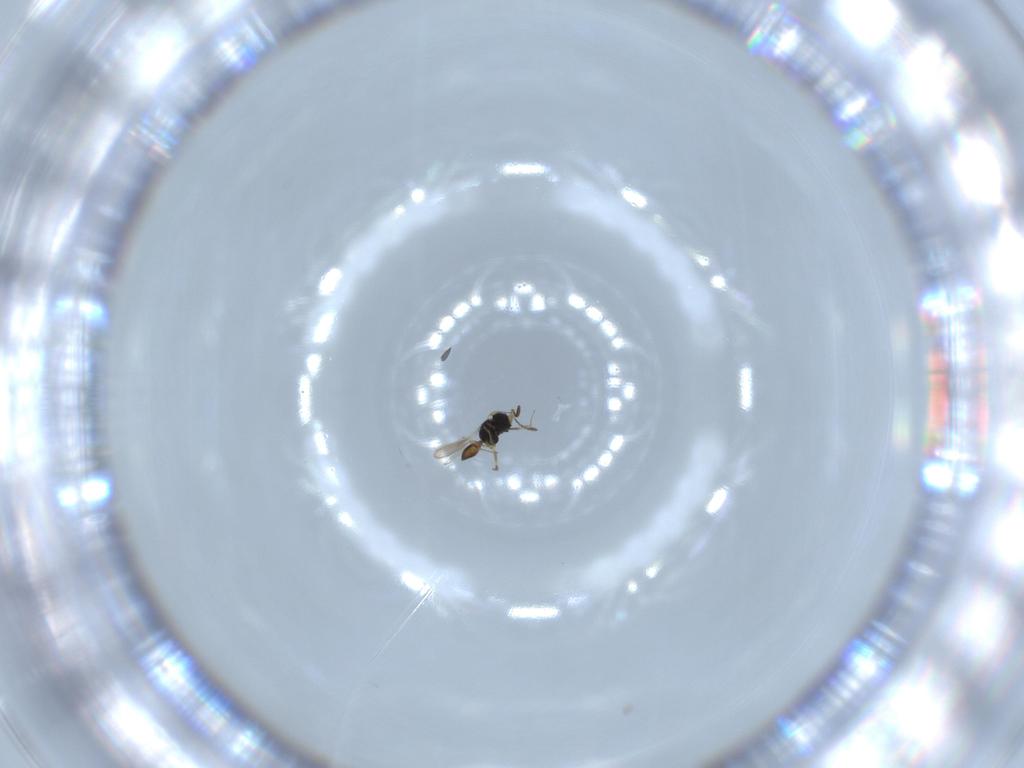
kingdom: Animalia
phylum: Arthropoda
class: Insecta
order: Hymenoptera
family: Scelionidae
